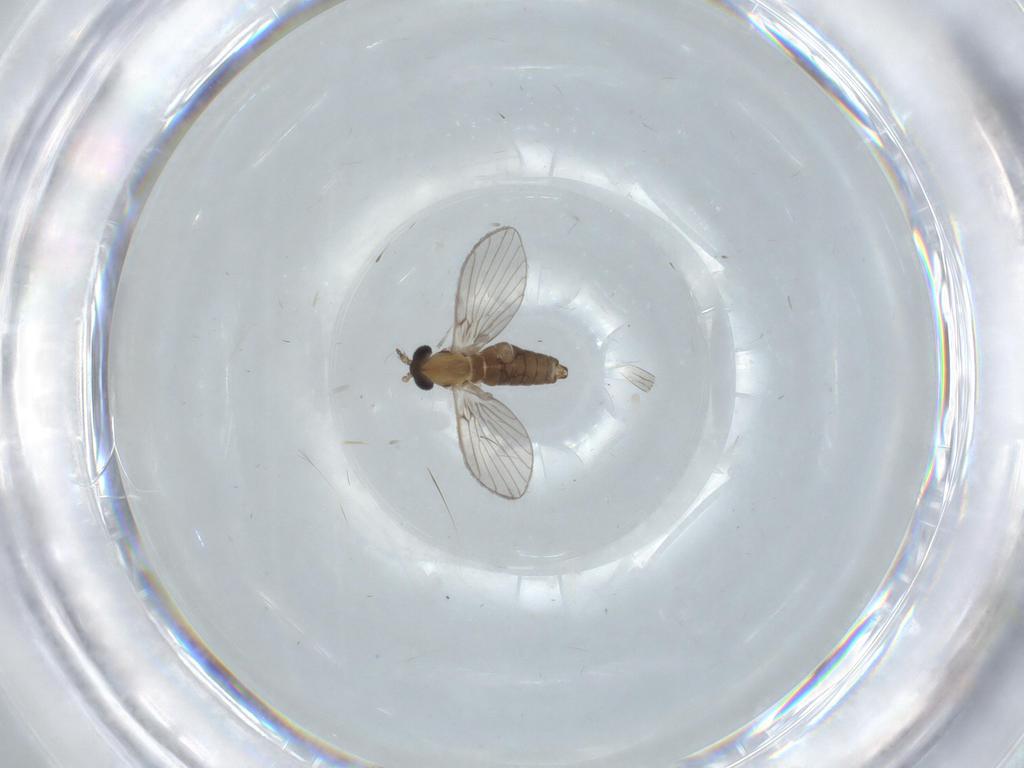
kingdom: Animalia
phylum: Arthropoda
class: Insecta
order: Diptera
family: Psychodidae
